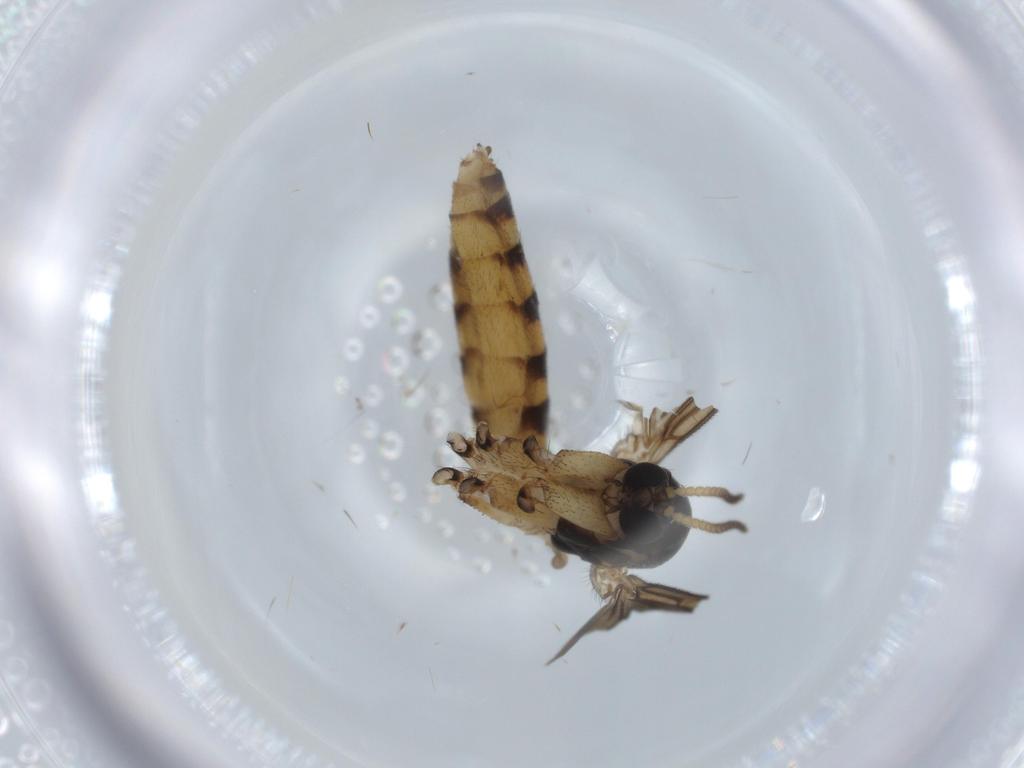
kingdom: Animalia
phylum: Arthropoda
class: Insecta
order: Diptera
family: Mycetophilidae
